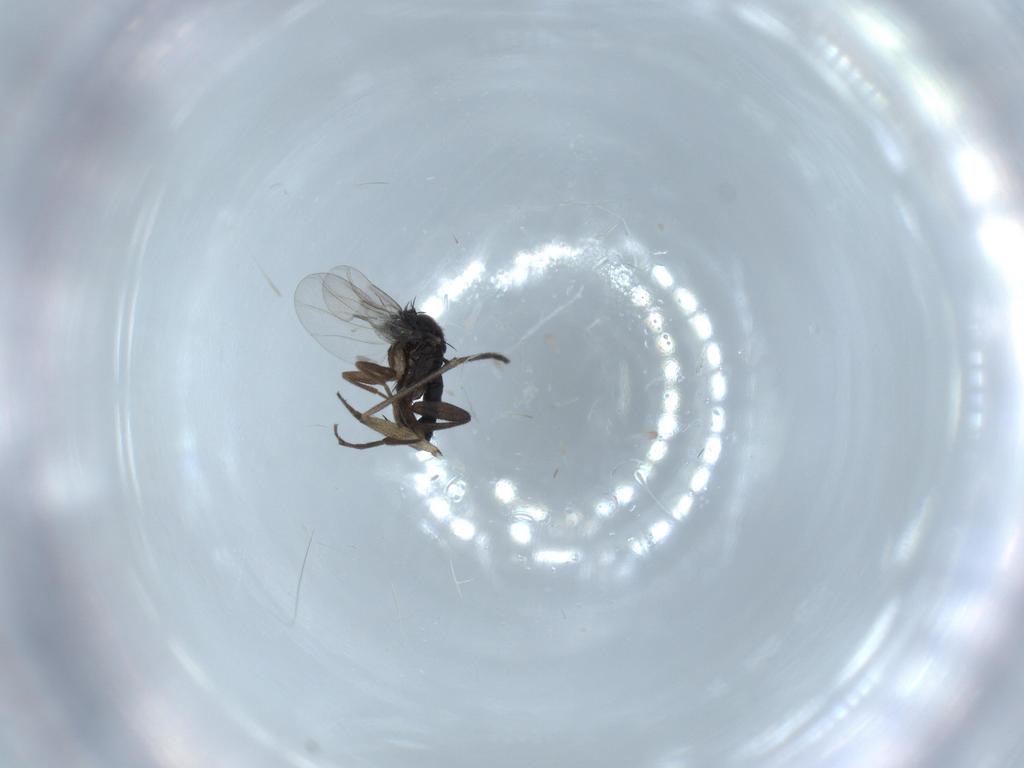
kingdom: Animalia
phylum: Arthropoda
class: Insecta
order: Diptera
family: Phoridae
